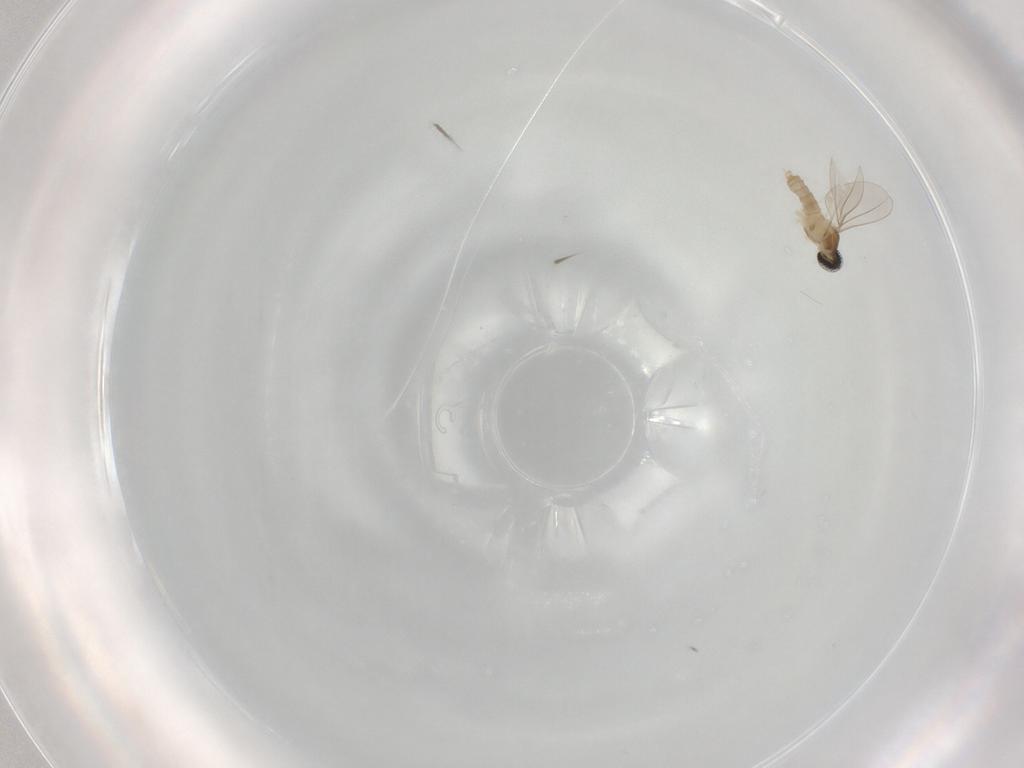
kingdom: Animalia
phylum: Arthropoda
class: Insecta
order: Diptera
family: Cecidomyiidae
